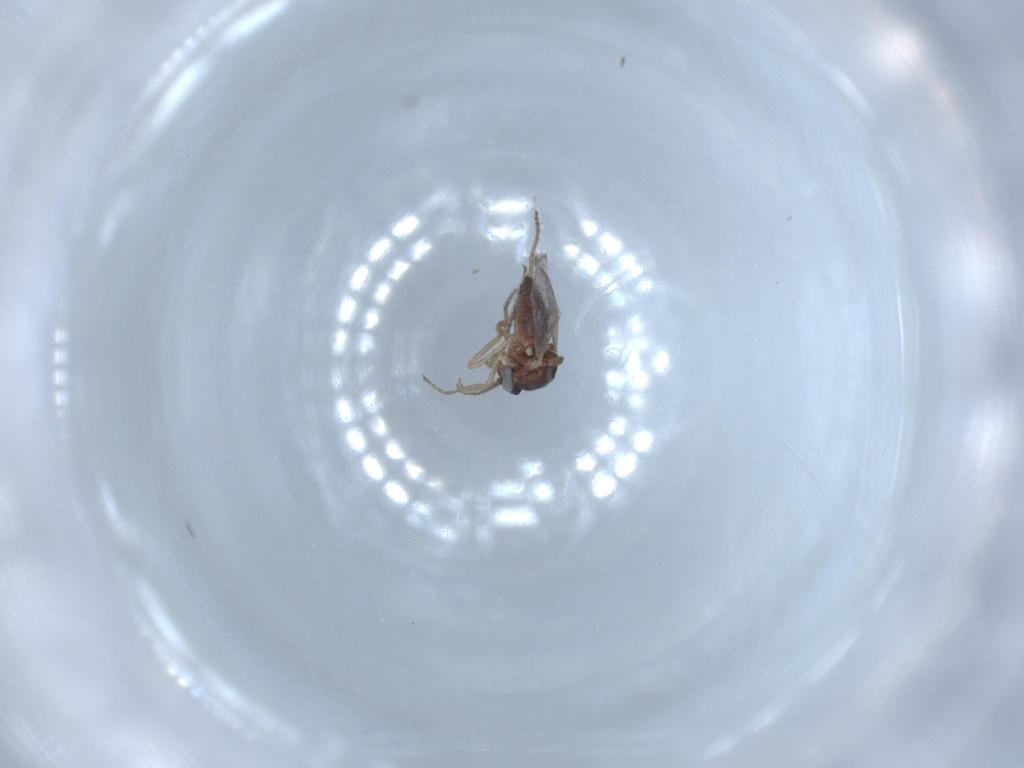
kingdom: Animalia
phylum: Arthropoda
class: Insecta
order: Diptera
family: Ceratopogonidae
